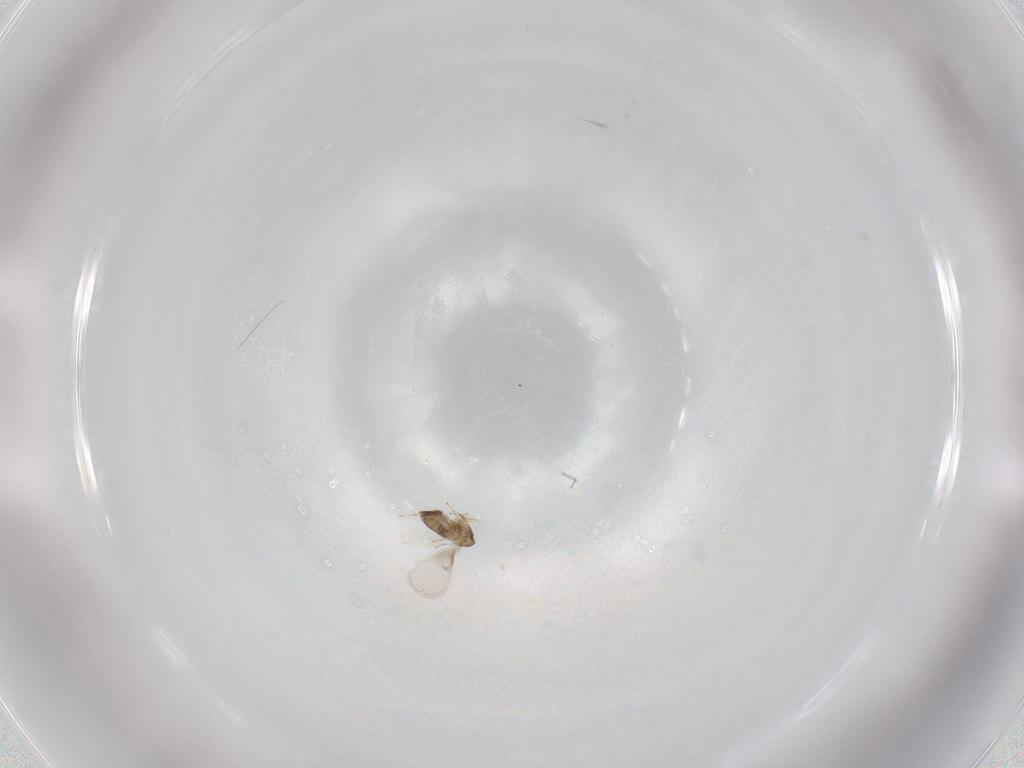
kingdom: Animalia
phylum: Arthropoda
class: Insecta
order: Hymenoptera
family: Trichogrammatidae
